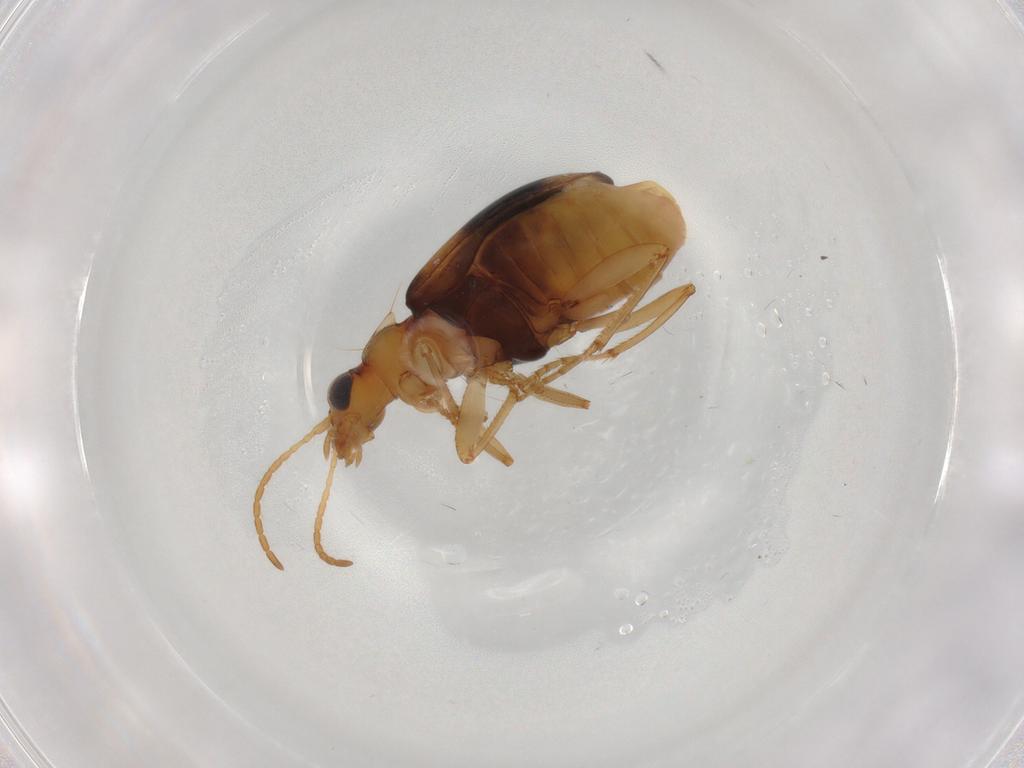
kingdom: Animalia
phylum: Arthropoda
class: Insecta
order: Coleoptera
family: Carabidae
